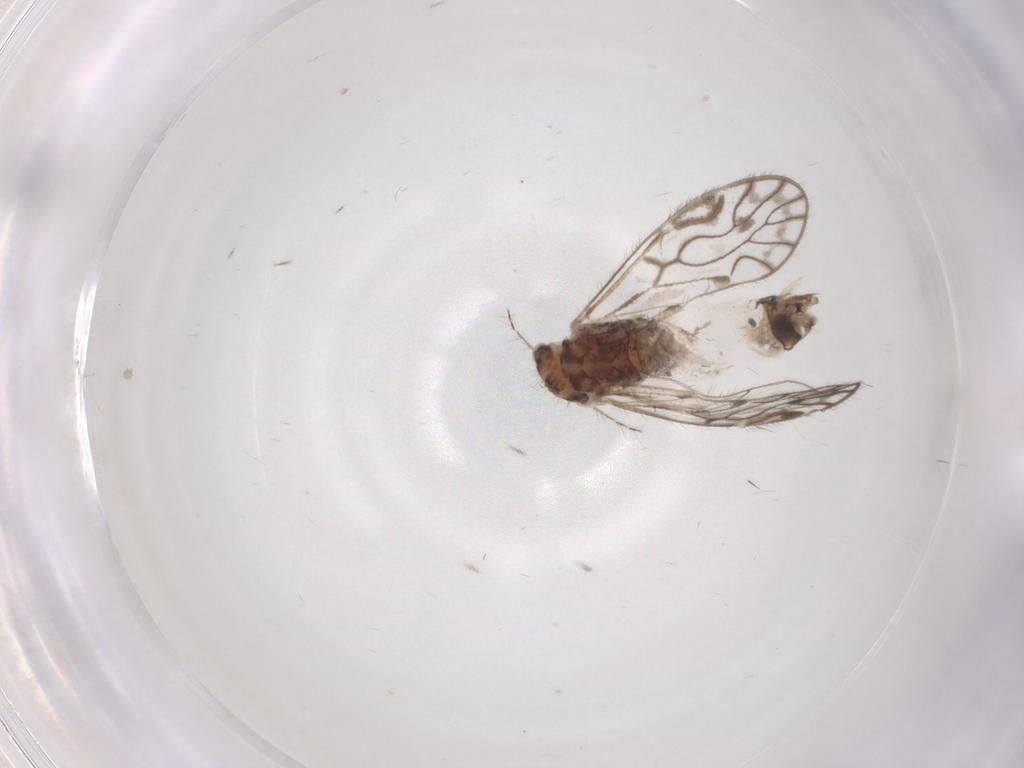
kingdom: Animalia
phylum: Arthropoda
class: Insecta
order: Psocodea
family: Psocidae
